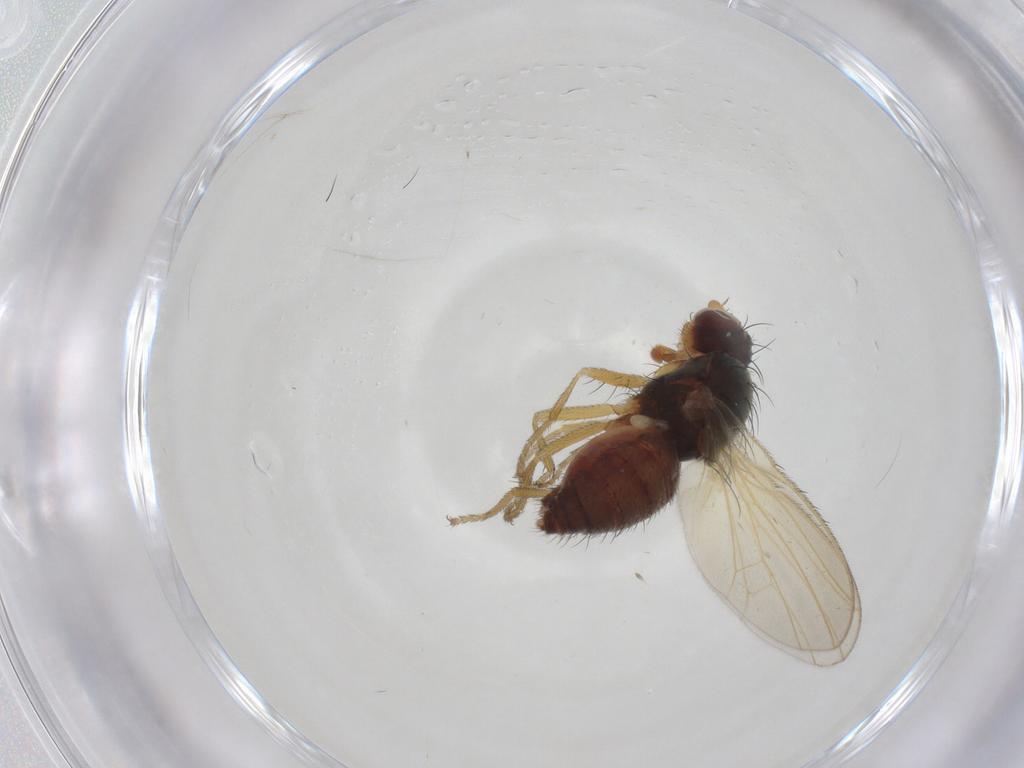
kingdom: Animalia
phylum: Arthropoda
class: Insecta
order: Diptera
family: Heleomyzidae
